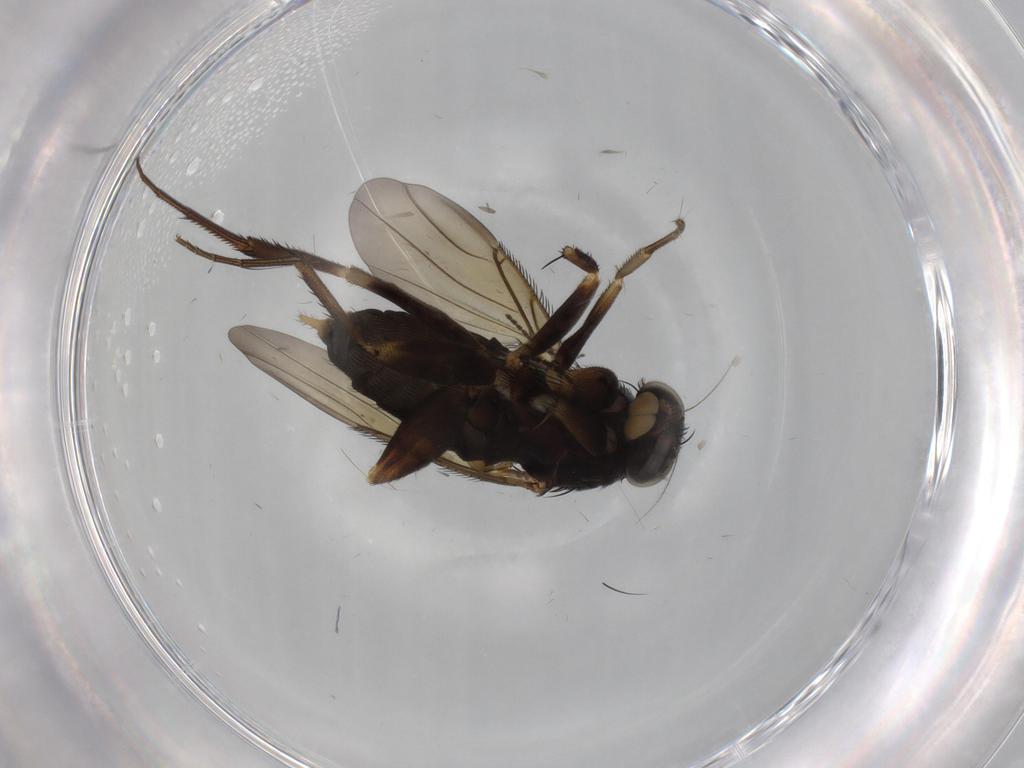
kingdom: Animalia
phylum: Arthropoda
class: Insecta
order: Diptera
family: Phoridae
